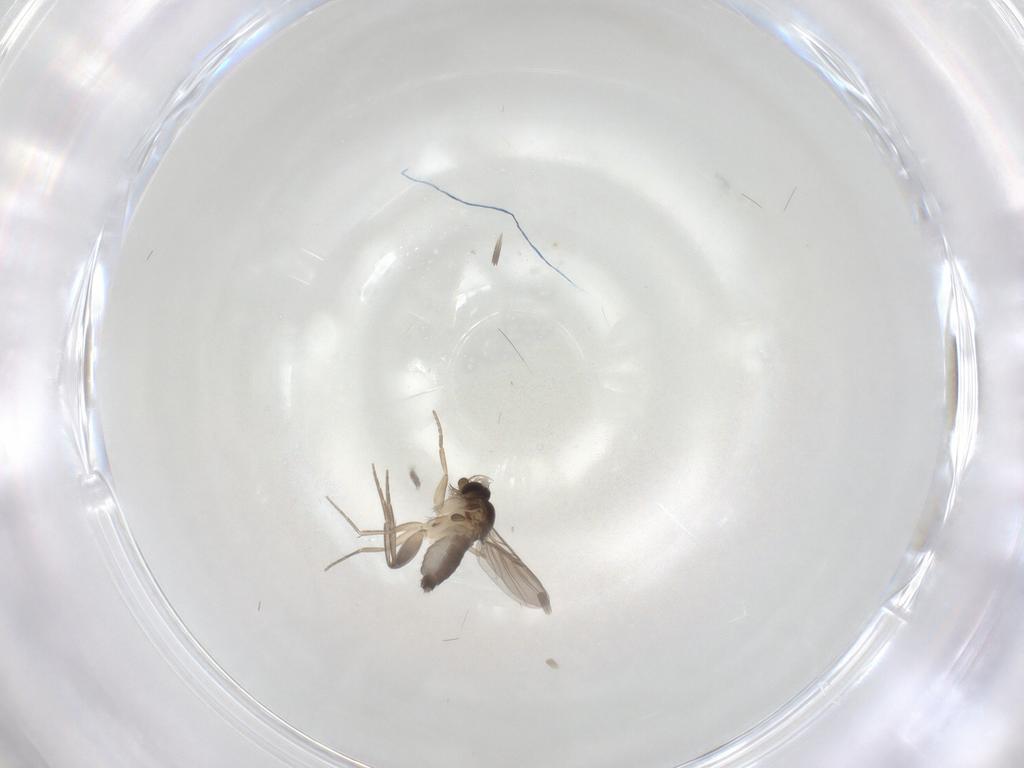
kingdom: Animalia
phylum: Arthropoda
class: Insecta
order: Diptera
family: Phoridae
